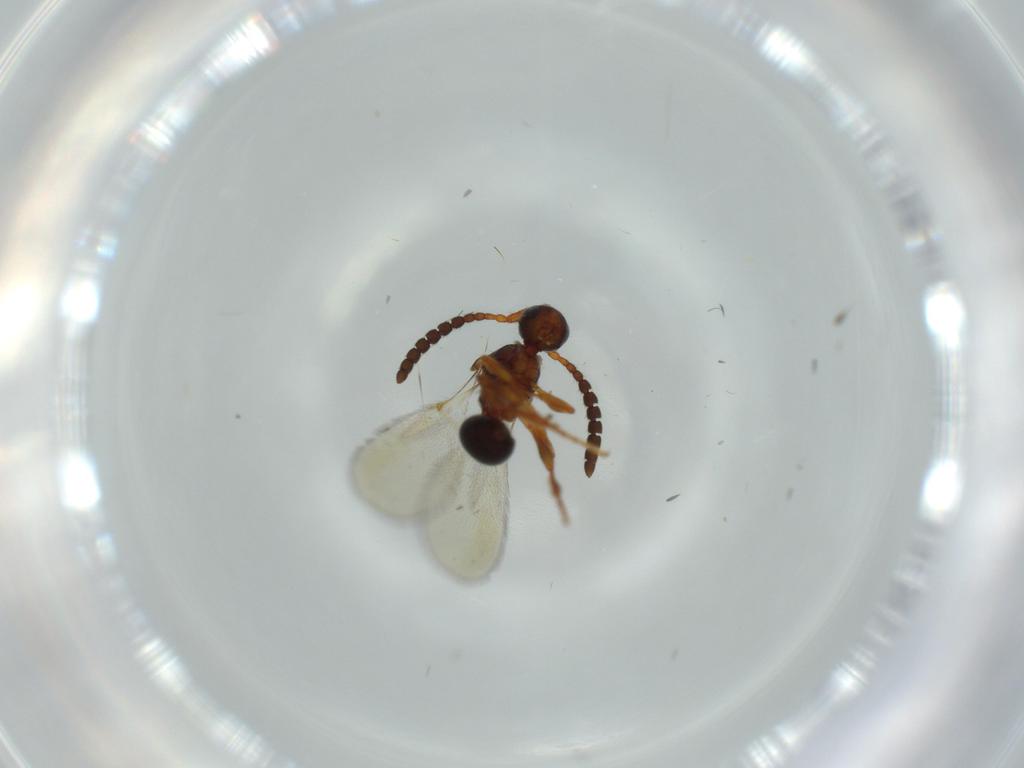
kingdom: Animalia
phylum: Arthropoda
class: Insecta
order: Hymenoptera
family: Diapriidae
